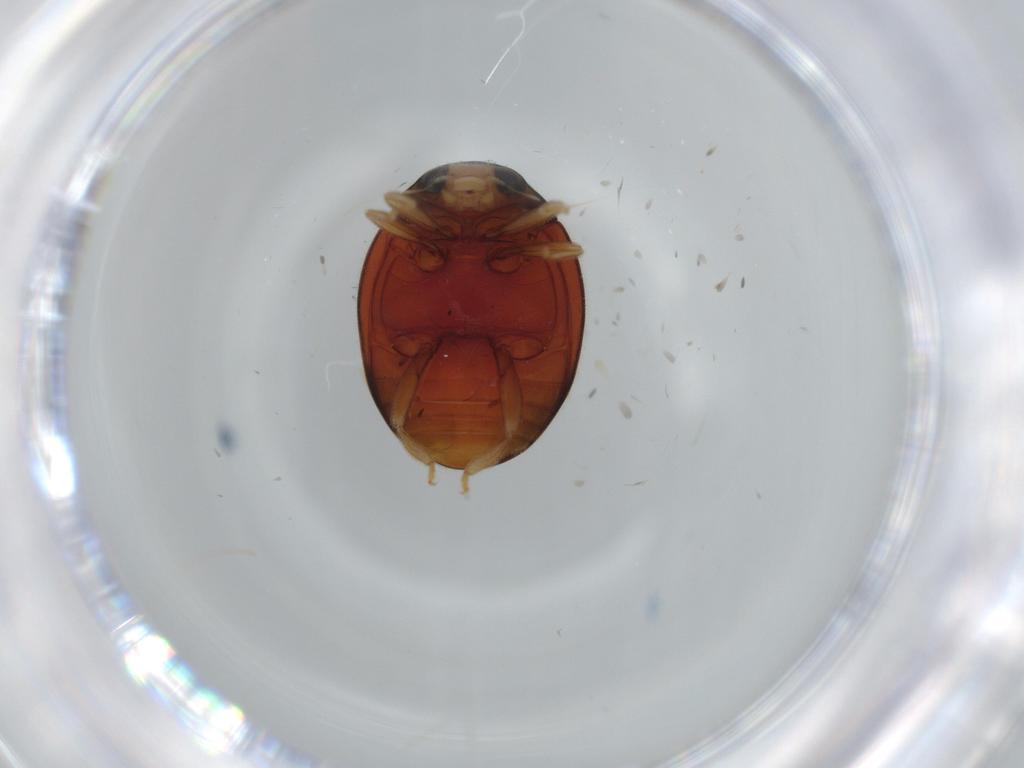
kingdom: Animalia
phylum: Arthropoda
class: Insecta
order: Coleoptera
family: Coccinellidae
